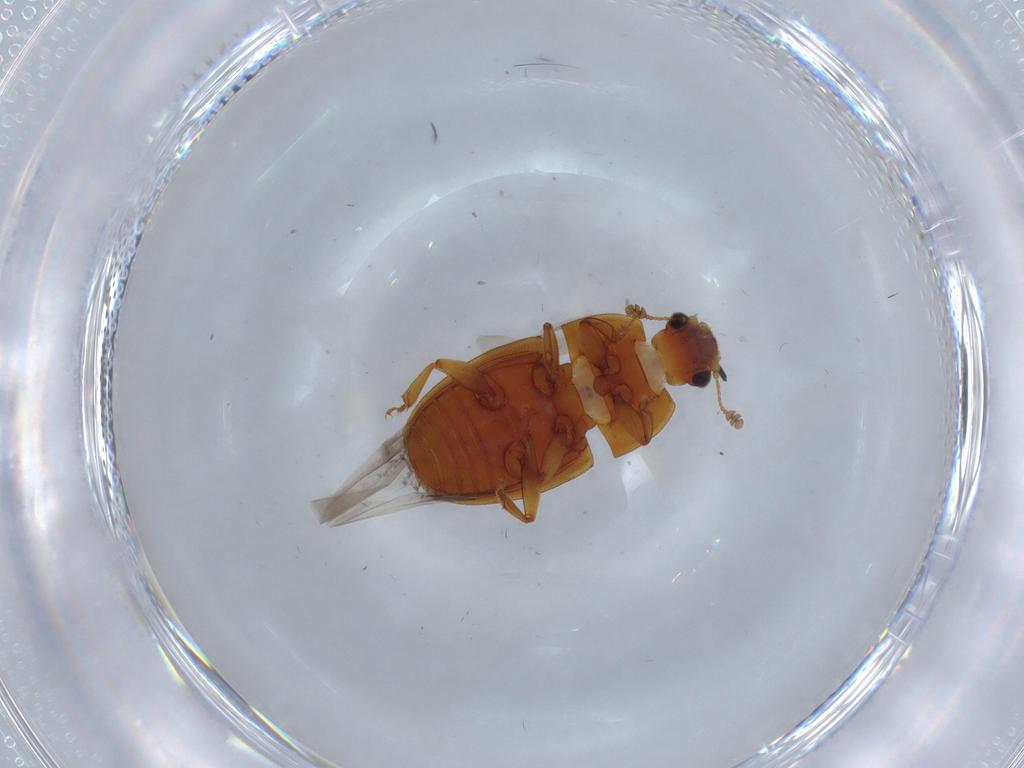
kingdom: Animalia
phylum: Arthropoda
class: Insecta
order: Coleoptera
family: Nitidulidae
